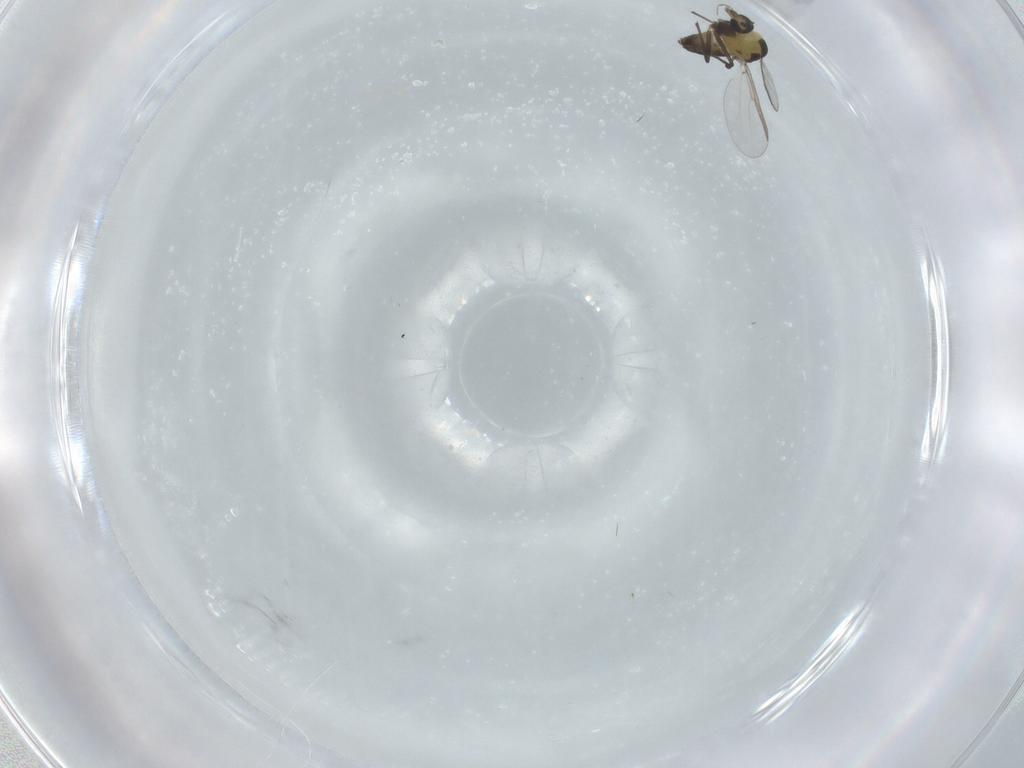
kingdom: Animalia
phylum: Arthropoda
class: Insecta
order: Diptera
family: Chironomidae
